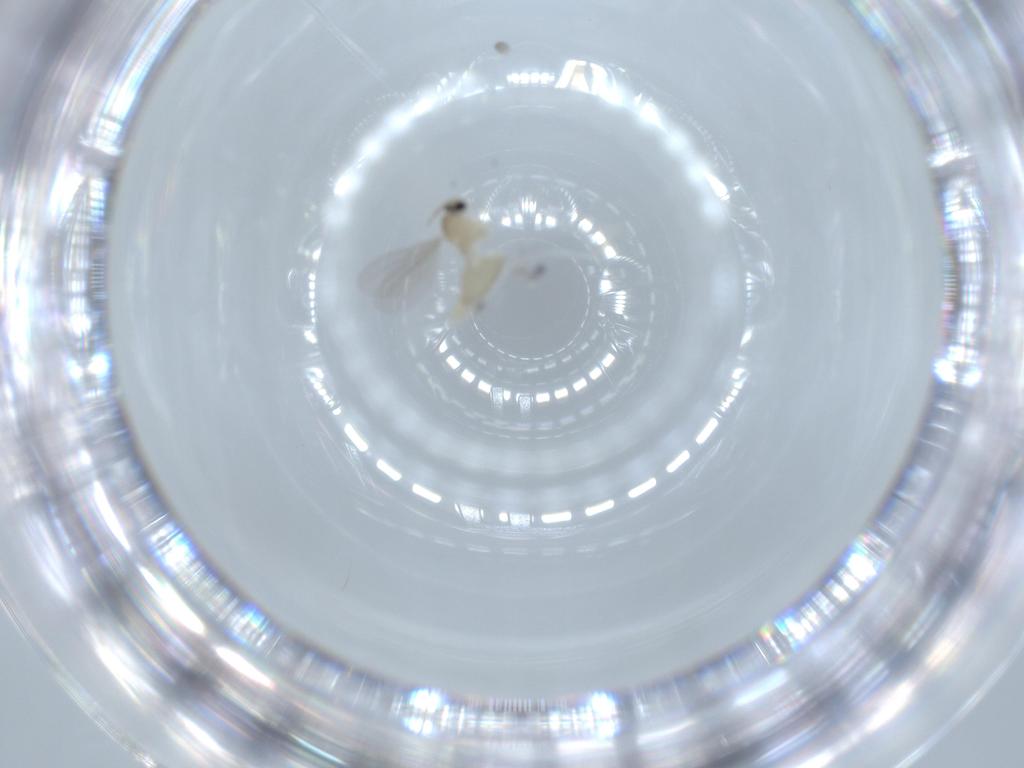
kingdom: Animalia
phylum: Arthropoda
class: Insecta
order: Diptera
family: Cecidomyiidae
